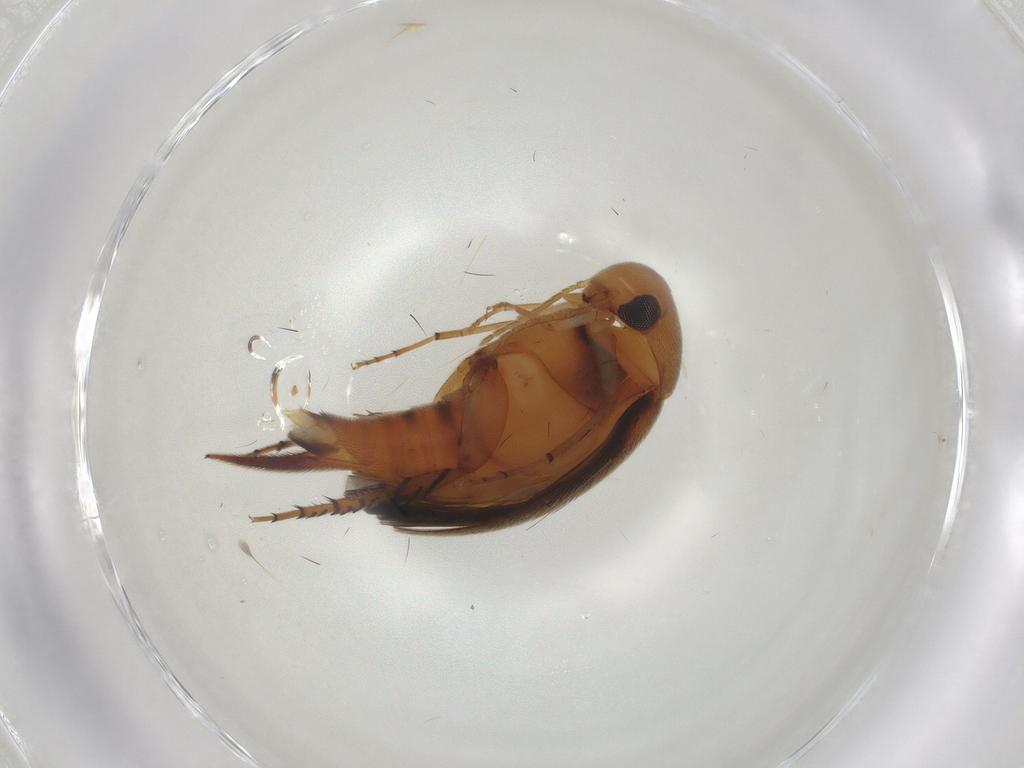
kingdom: Animalia
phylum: Arthropoda
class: Insecta
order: Coleoptera
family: Mordellidae
